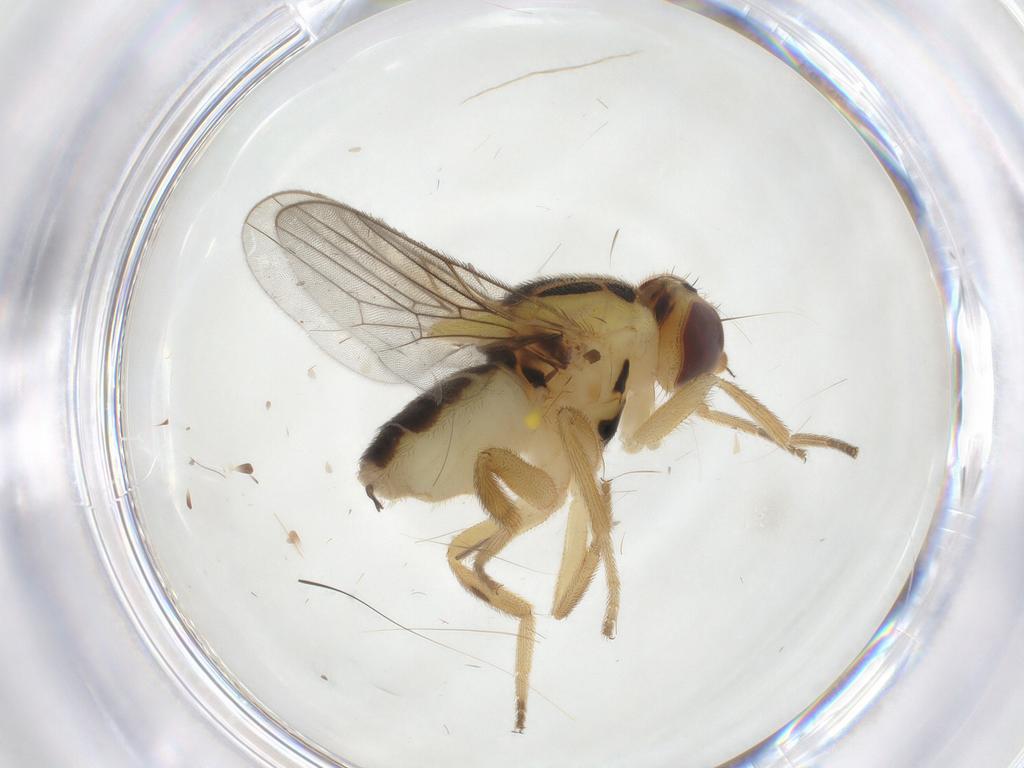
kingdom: Animalia
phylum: Arthropoda
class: Insecta
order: Diptera
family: Chloropidae
